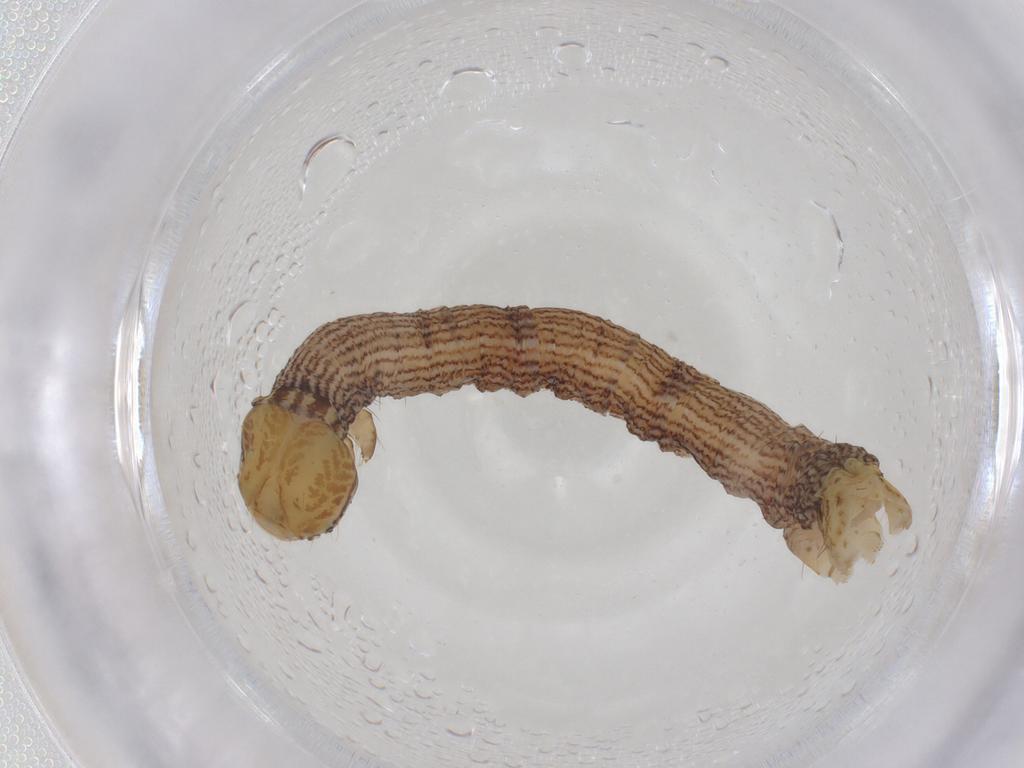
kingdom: Animalia
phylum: Arthropoda
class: Insecta
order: Lepidoptera
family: Geometridae
